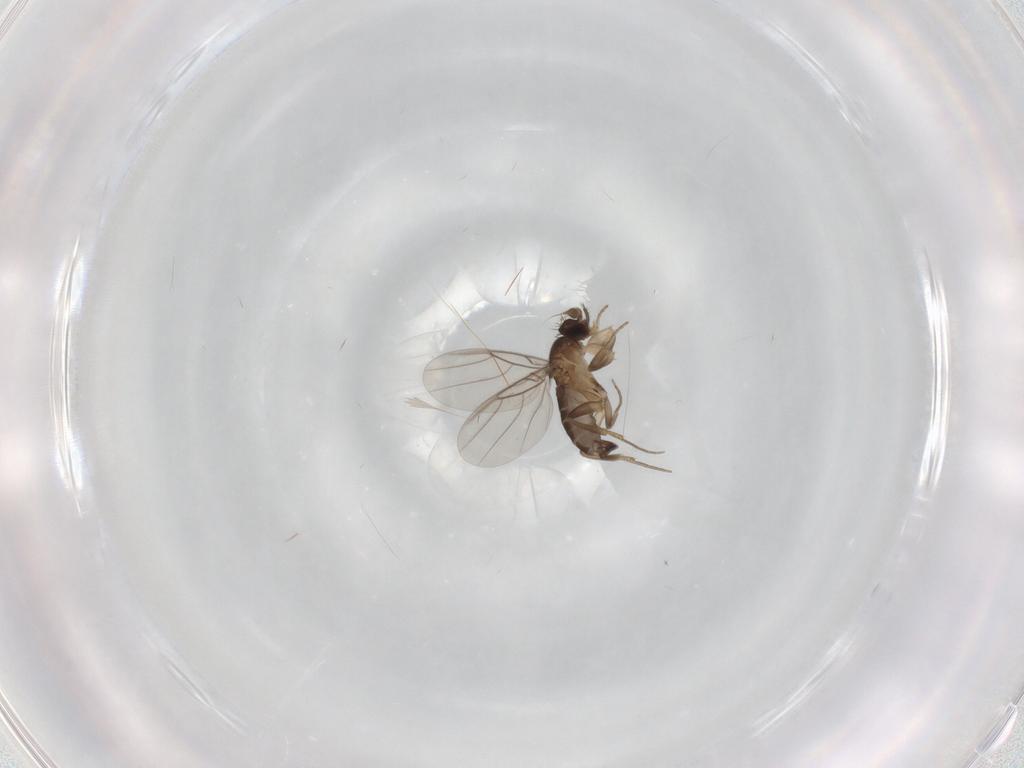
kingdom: Animalia
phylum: Arthropoda
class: Insecta
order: Diptera
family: Phoridae
